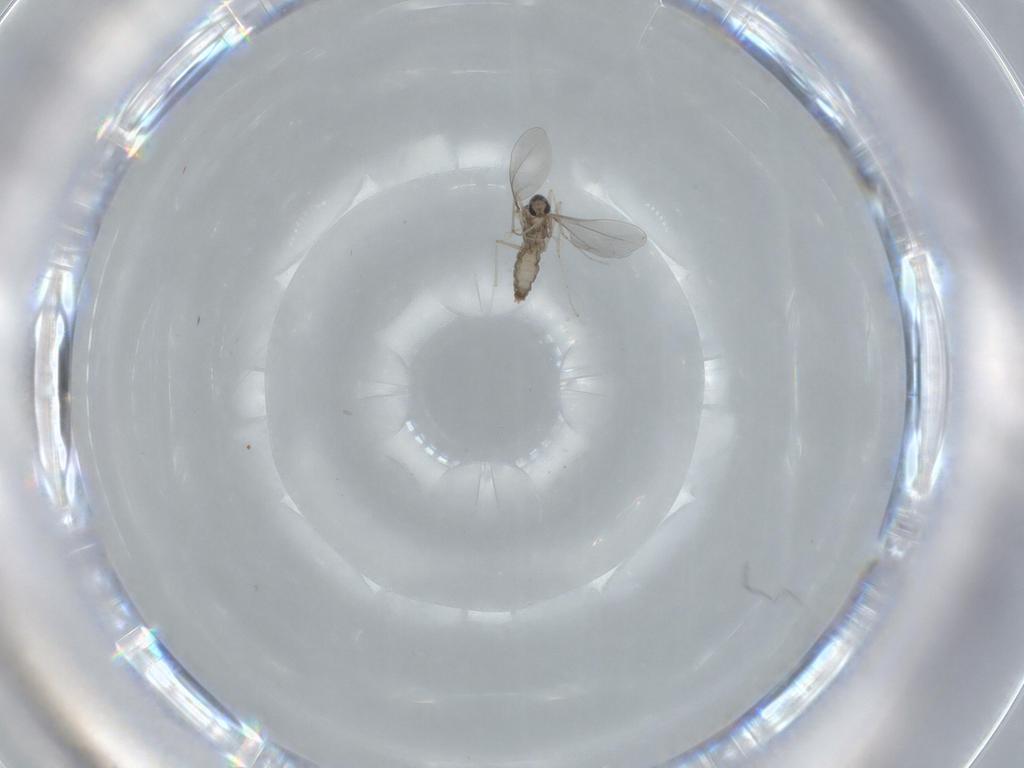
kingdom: Animalia
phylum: Arthropoda
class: Insecta
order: Diptera
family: Cecidomyiidae
